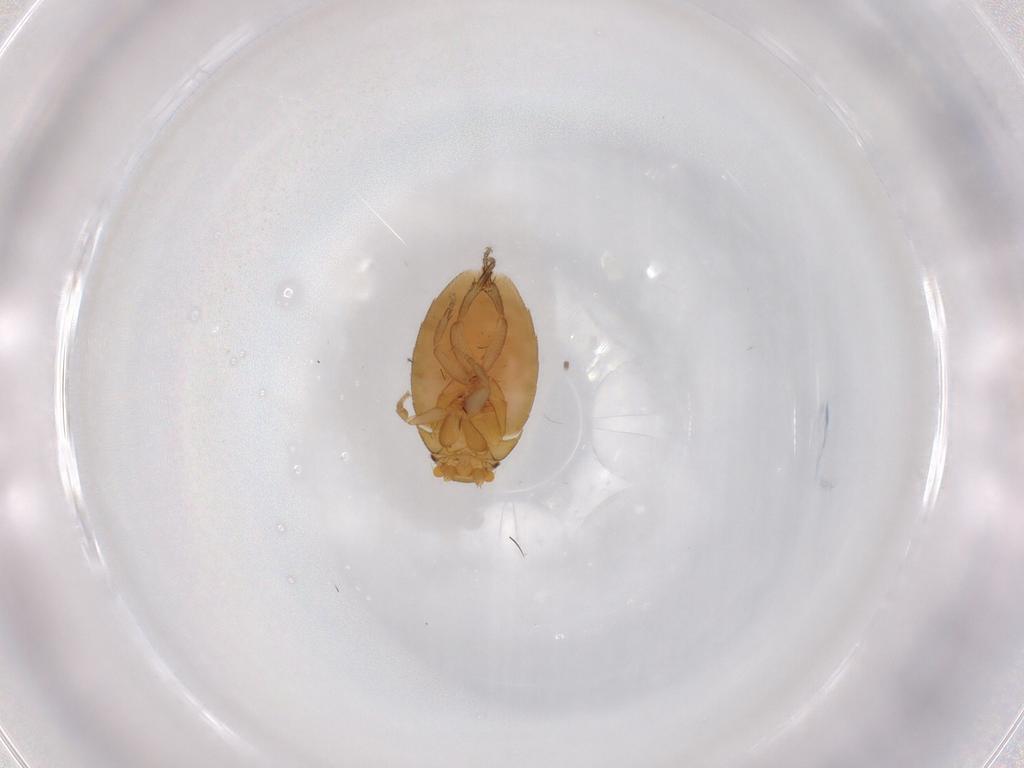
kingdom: Animalia
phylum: Arthropoda
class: Insecta
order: Diptera
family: Phoridae
